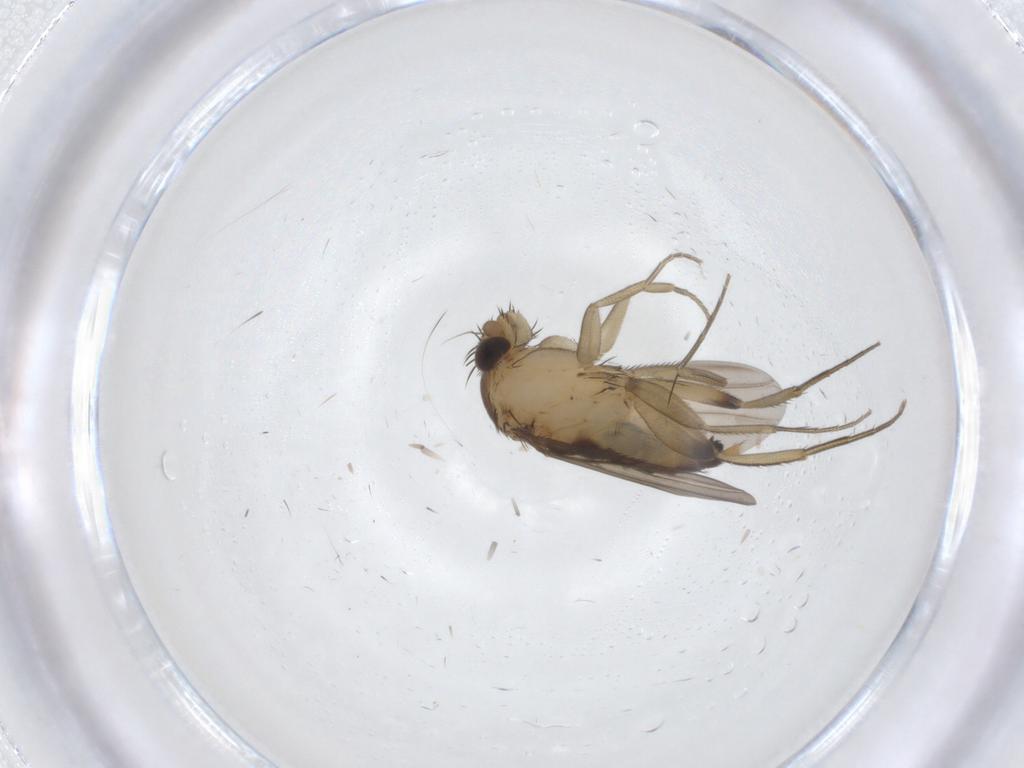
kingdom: Animalia
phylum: Arthropoda
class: Insecta
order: Diptera
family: Phoridae
